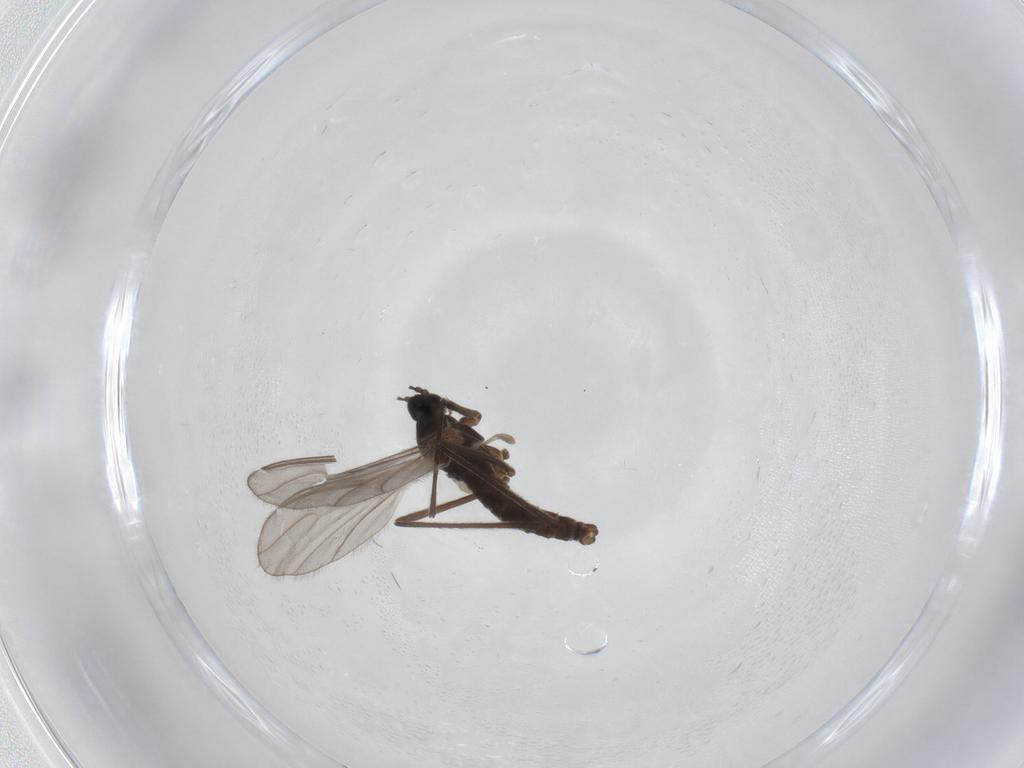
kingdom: Animalia
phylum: Arthropoda
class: Insecta
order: Diptera
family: Cecidomyiidae
